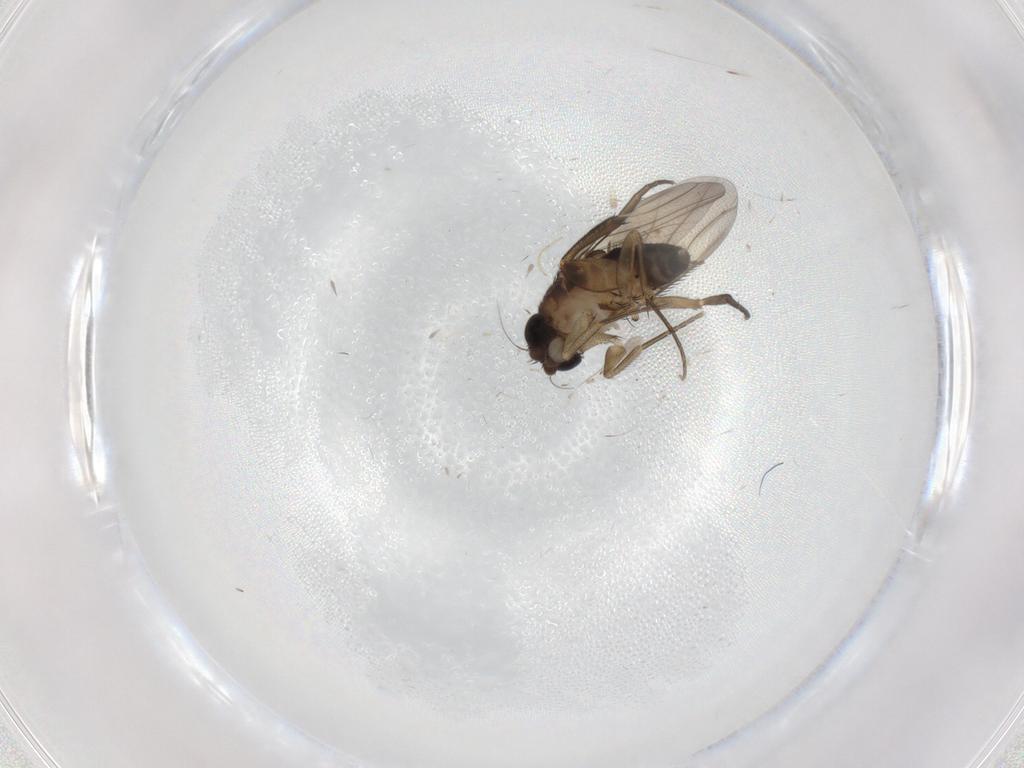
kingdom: Animalia
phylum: Arthropoda
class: Insecta
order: Diptera
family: Phoridae
